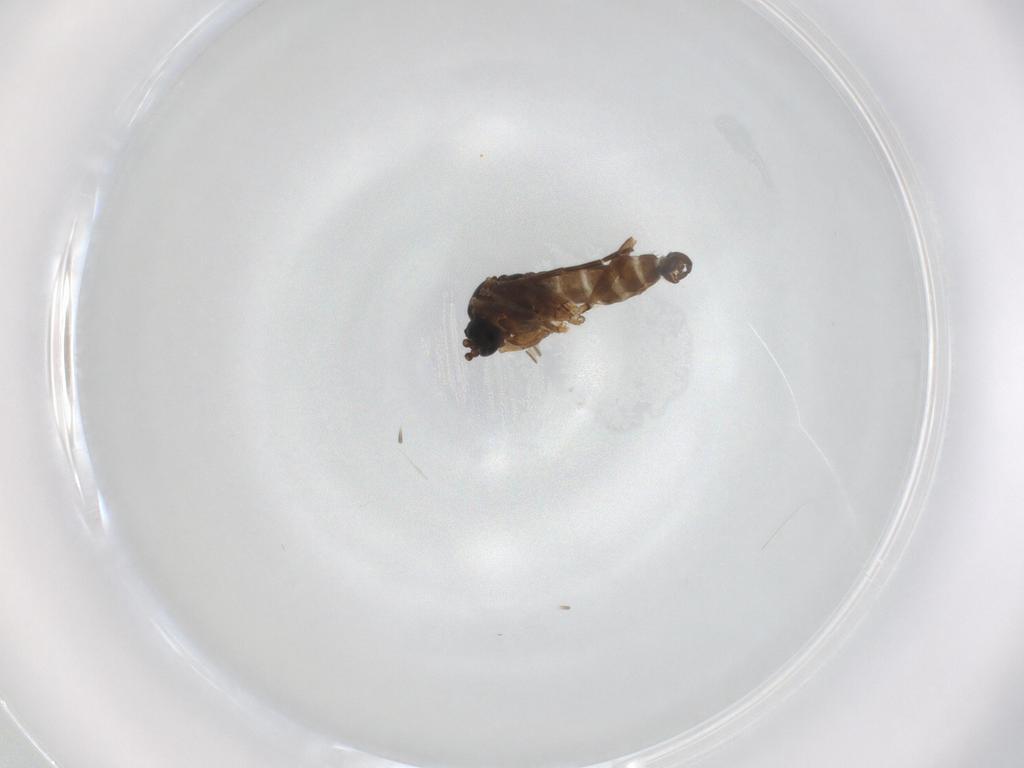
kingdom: Animalia
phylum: Arthropoda
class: Insecta
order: Diptera
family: Sciaridae
